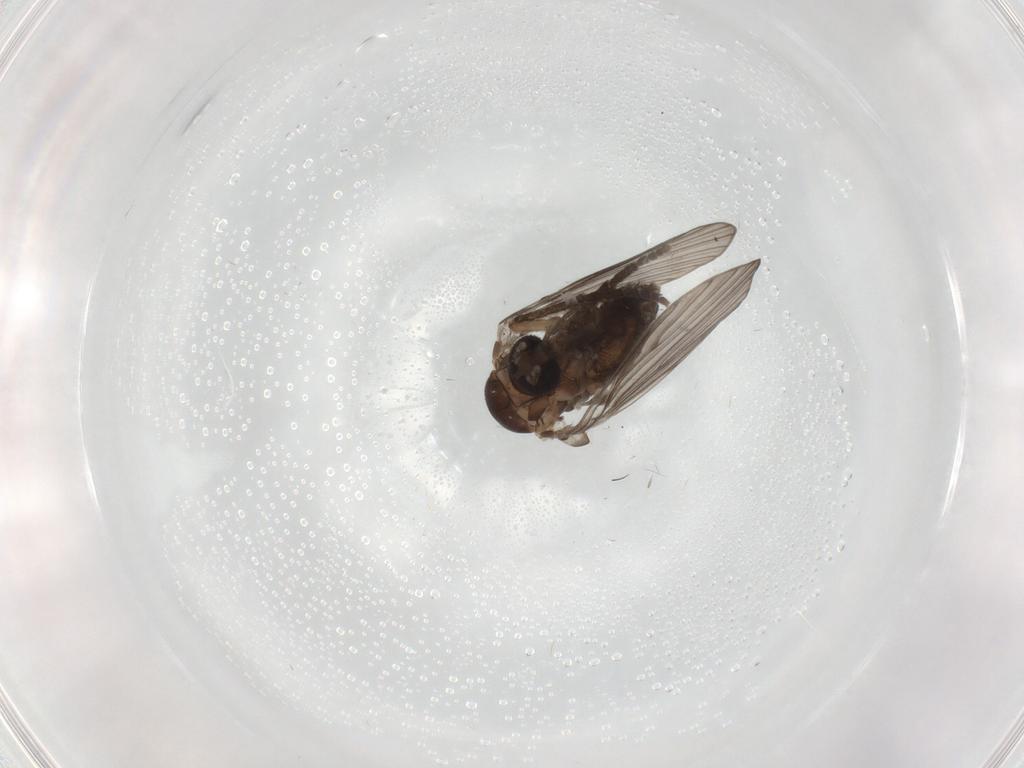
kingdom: Animalia
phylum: Arthropoda
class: Insecta
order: Diptera
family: Psychodidae
